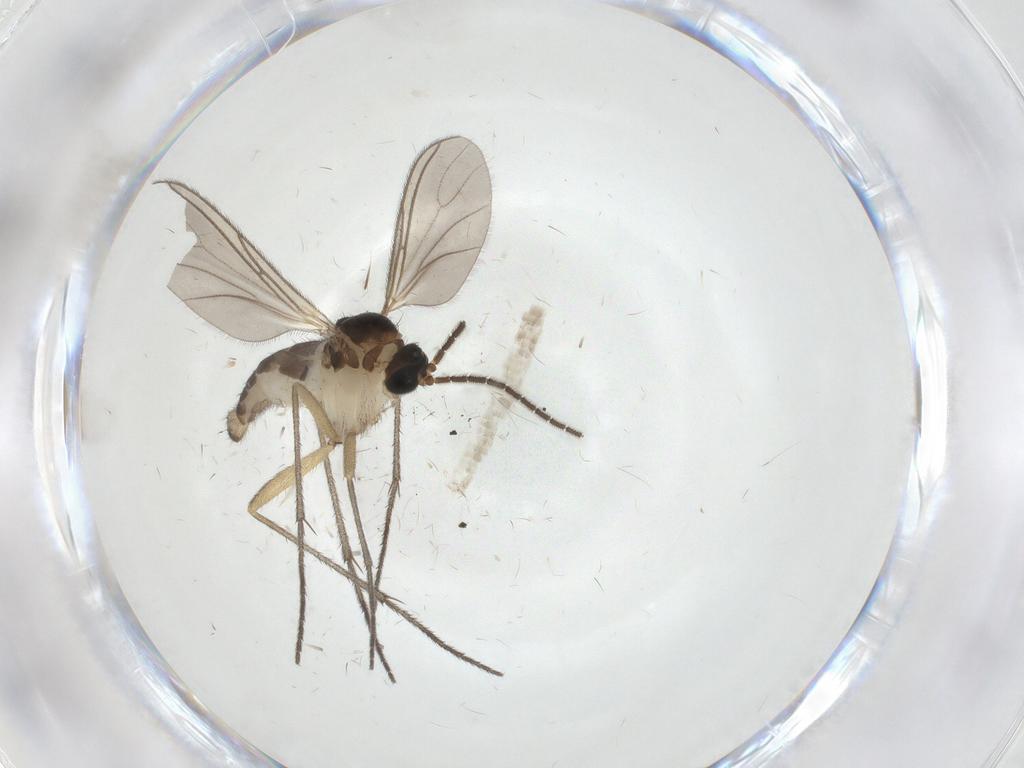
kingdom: Animalia
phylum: Arthropoda
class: Insecta
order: Diptera
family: Sciaridae
